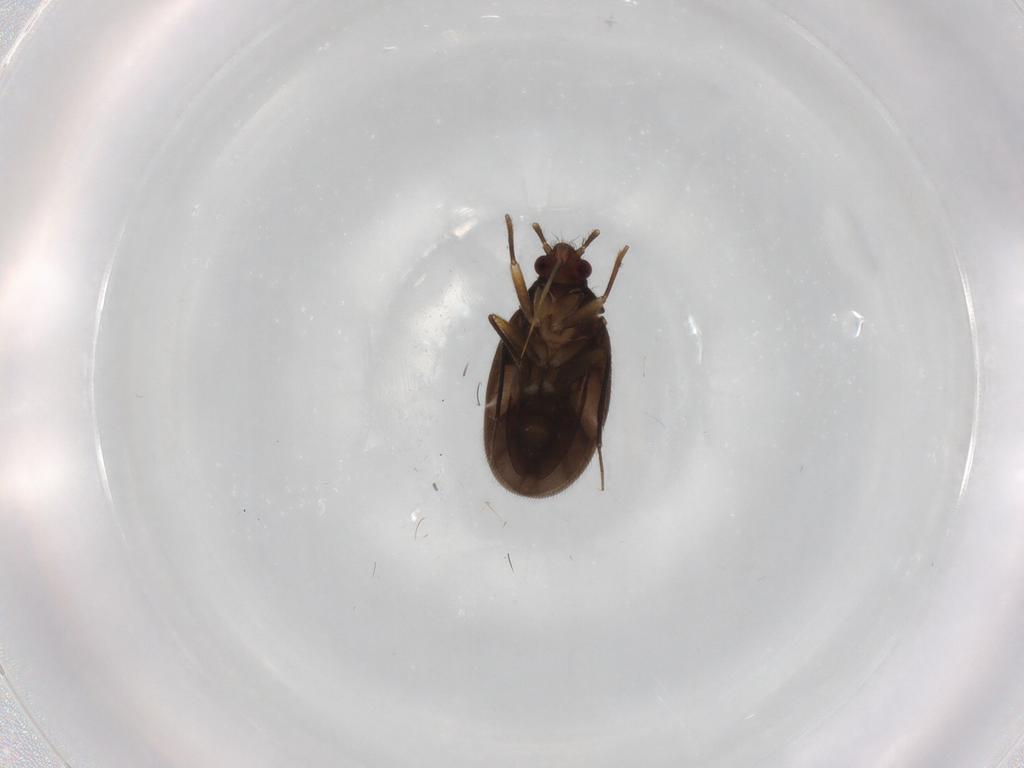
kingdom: Animalia
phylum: Arthropoda
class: Insecta
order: Hemiptera
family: Ceratocombidae
